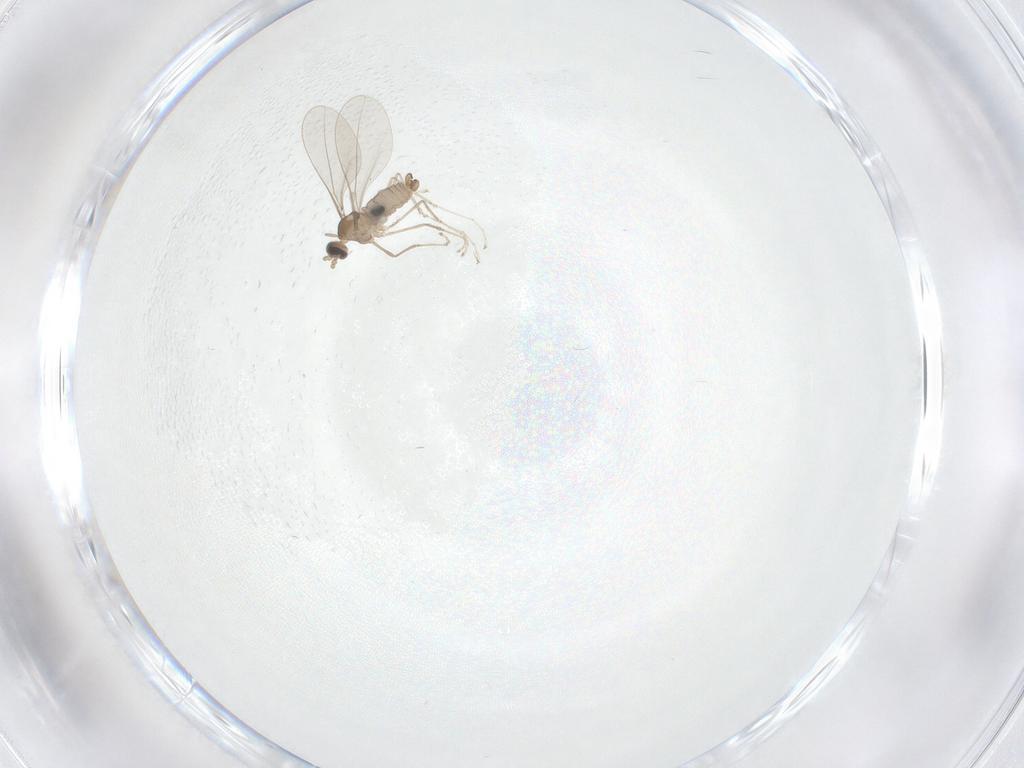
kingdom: Animalia
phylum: Arthropoda
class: Insecta
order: Diptera
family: Cecidomyiidae
